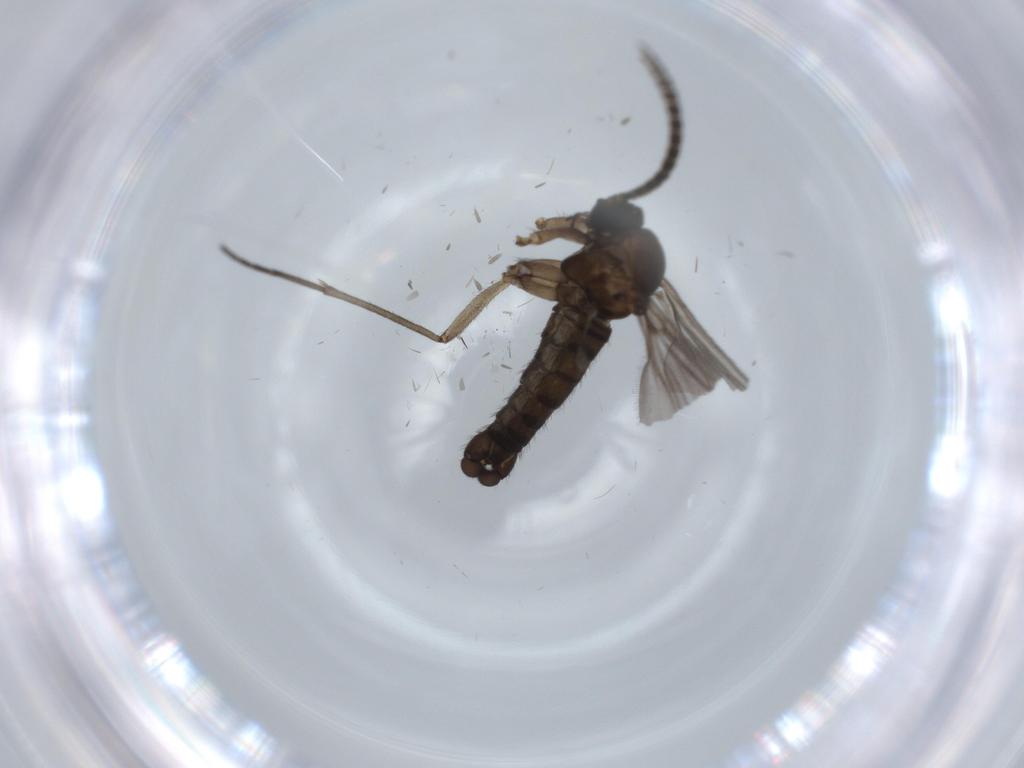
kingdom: Animalia
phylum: Arthropoda
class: Insecta
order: Diptera
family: Sciaridae
